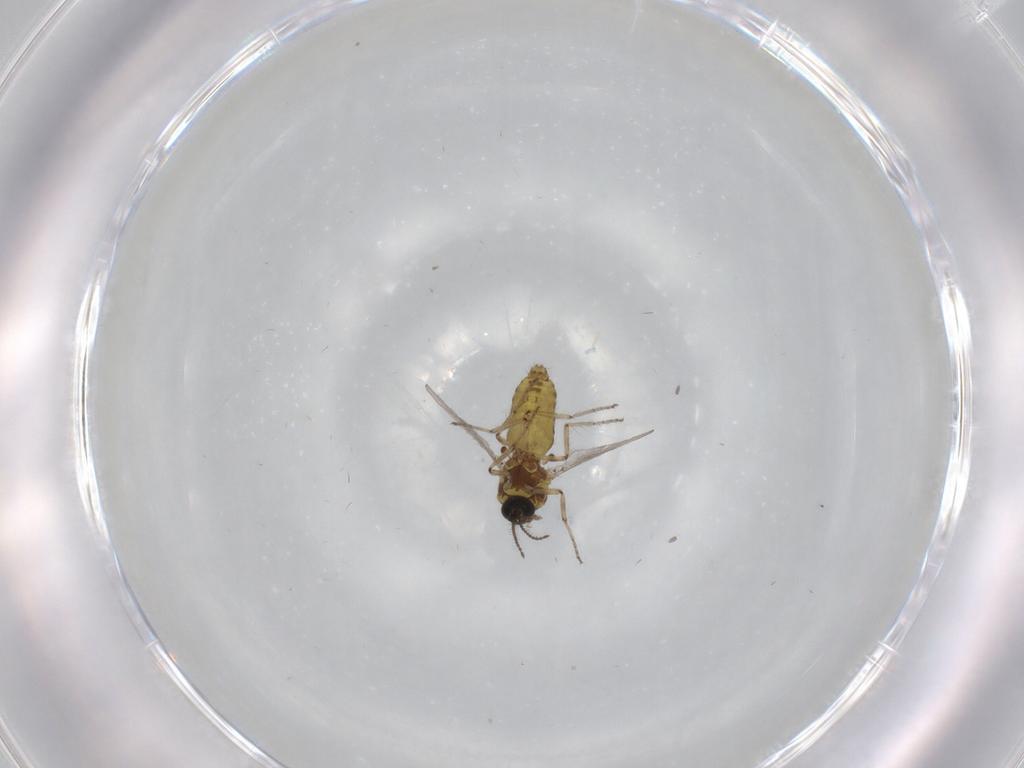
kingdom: Animalia
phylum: Arthropoda
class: Insecta
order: Diptera
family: Ceratopogonidae
